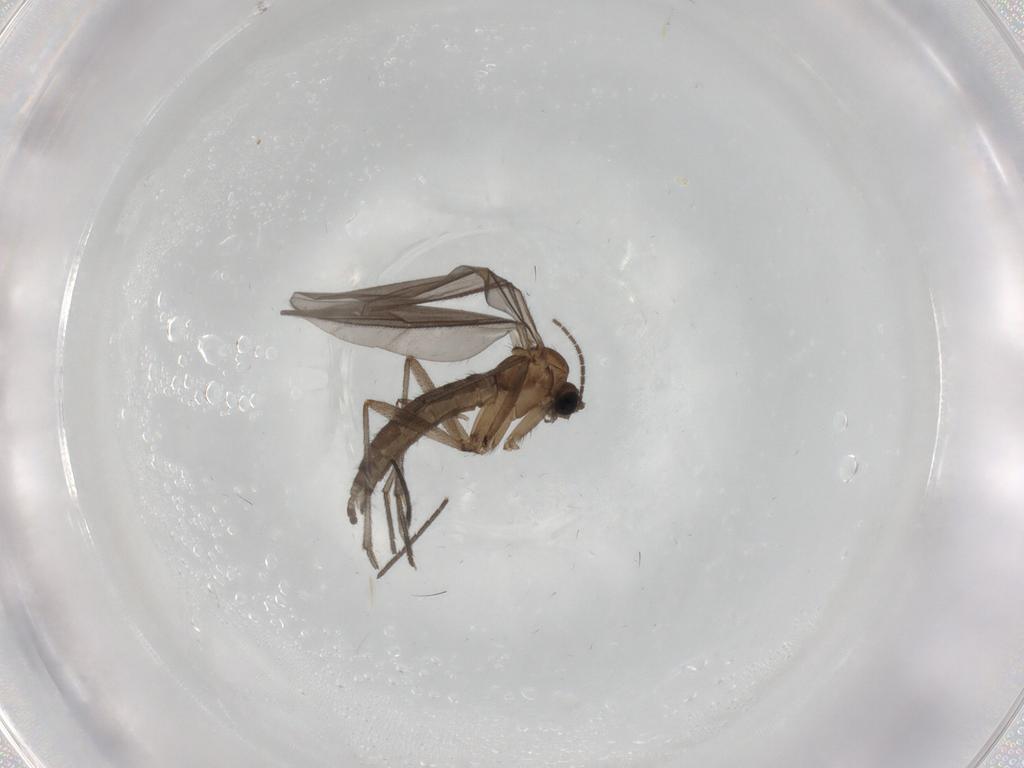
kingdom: Animalia
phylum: Arthropoda
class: Insecta
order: Diptera
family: Sciaridae
